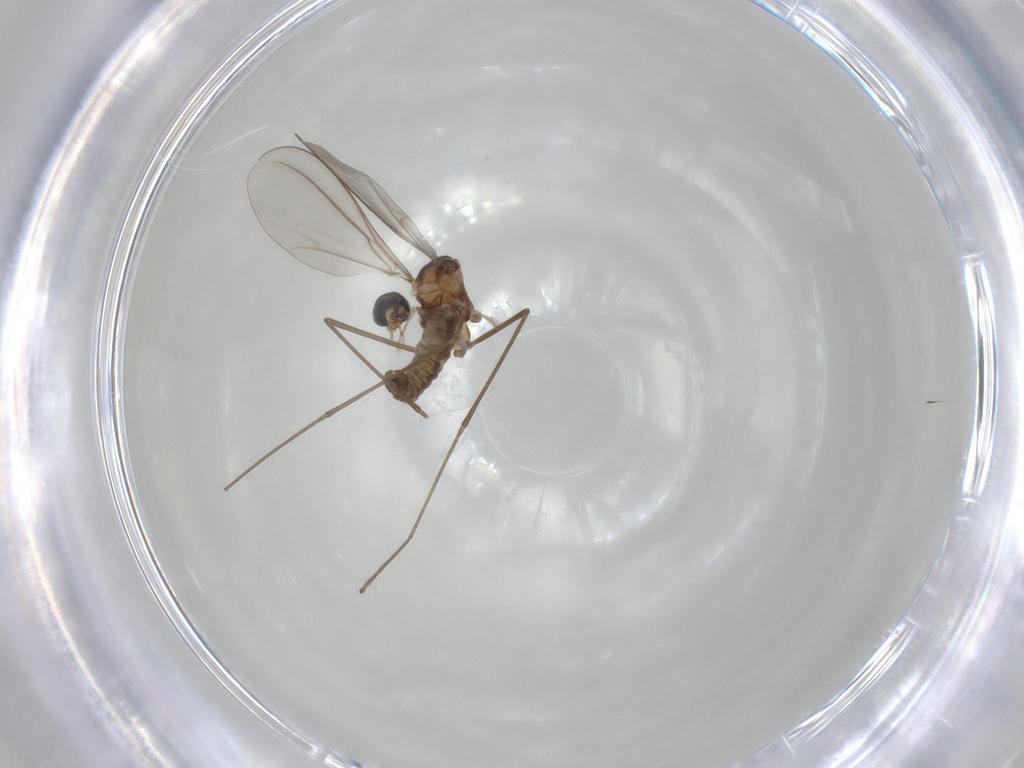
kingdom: Animalia
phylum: Arthropoda
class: Insecta
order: Diptera
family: Cecidomyiidae
